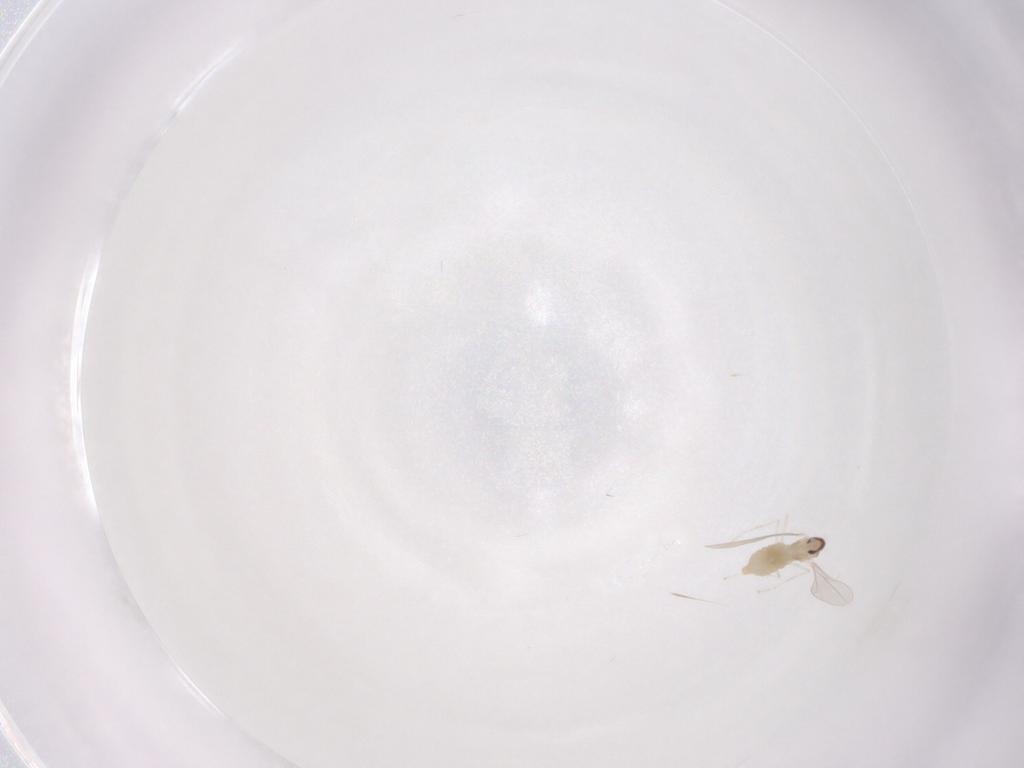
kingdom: Animalia
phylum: Arthropoda
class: Insecta
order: Diptera
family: Cecidomyiidae
